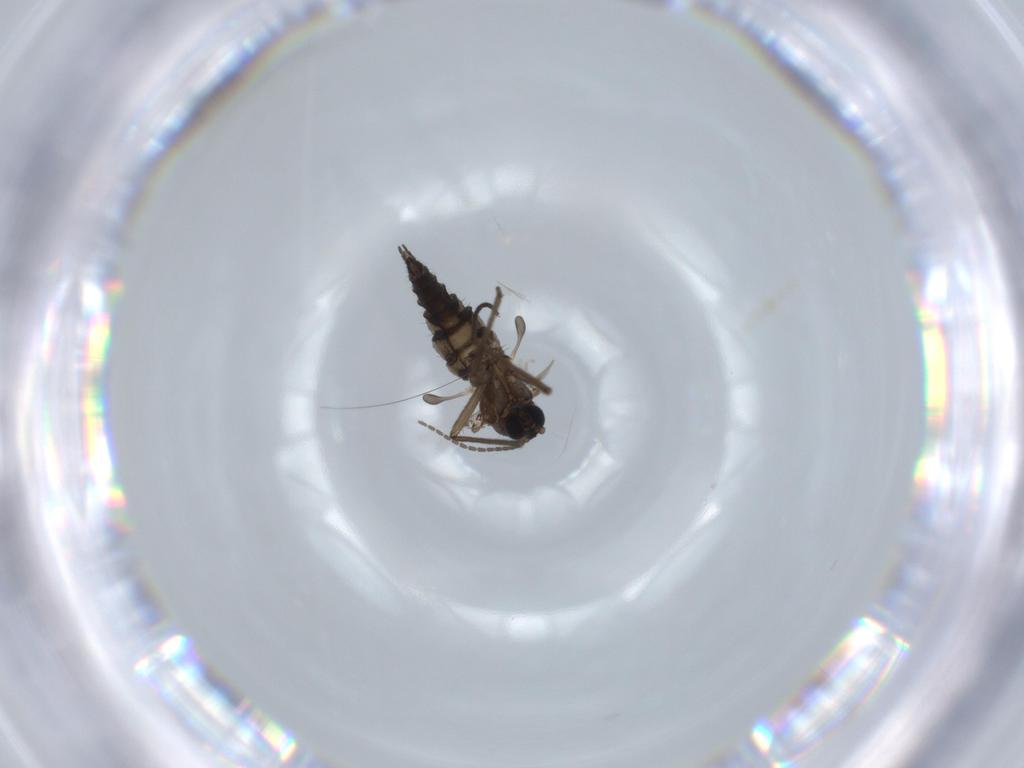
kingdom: Animalia
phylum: Arthropoda
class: Insecta
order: Diptera
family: Sciaridae
